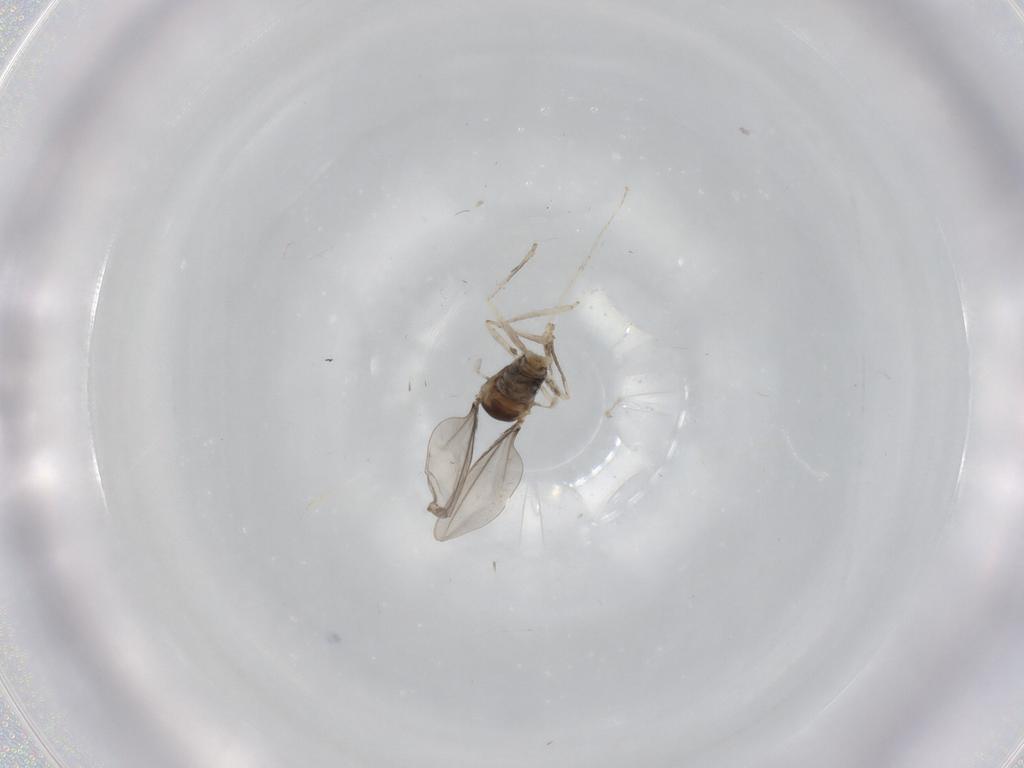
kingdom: Animalia
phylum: Arthropoda
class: Insecta
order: Diptera
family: Cecidomyiidae
